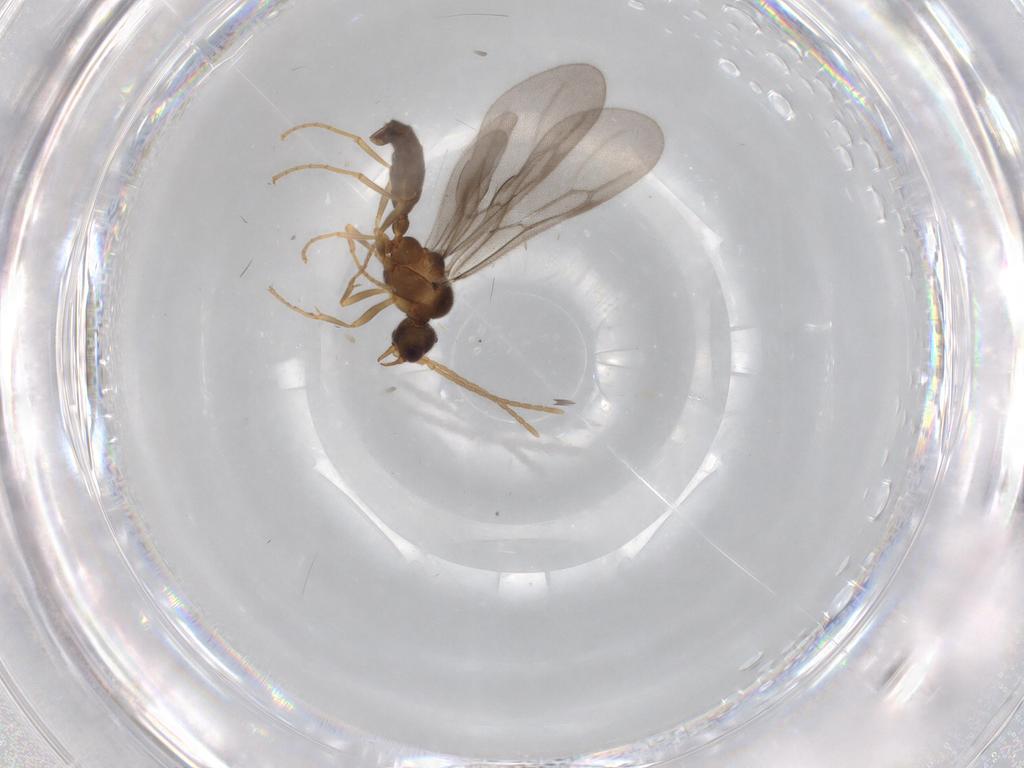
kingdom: Animalia
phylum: Arthropoda
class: Insecta
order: Hymenoptera
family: Formicidae
